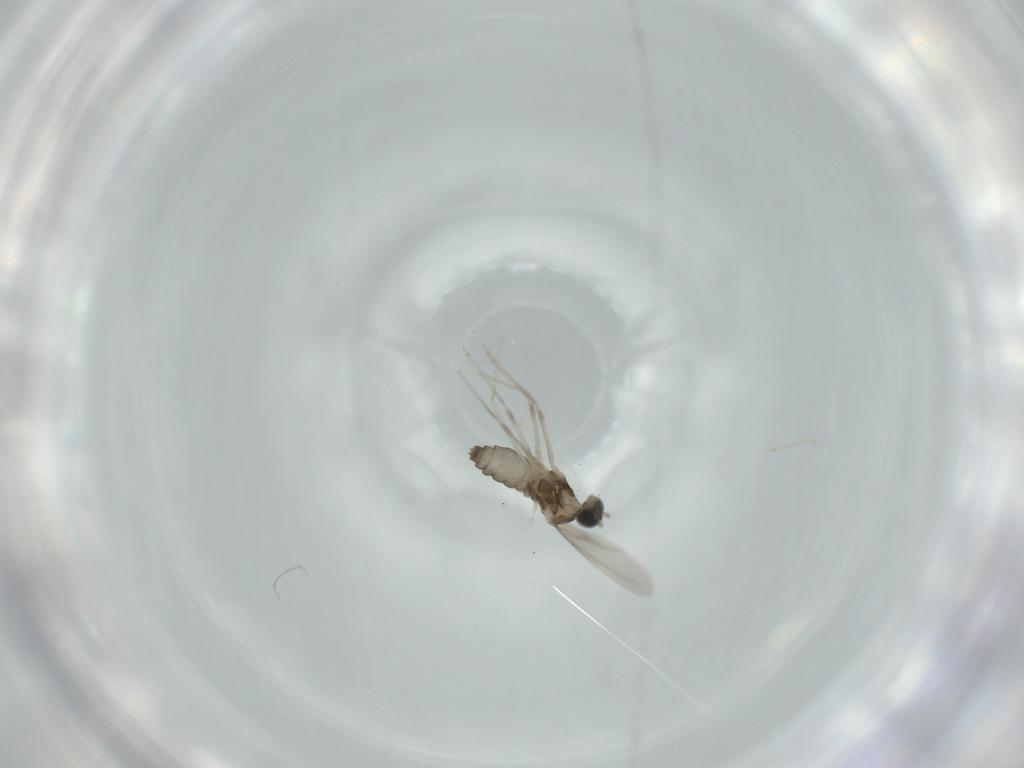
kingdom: Animalia
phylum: Arthropoda
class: Insecta
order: Diptera
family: Cecidomyiidae
